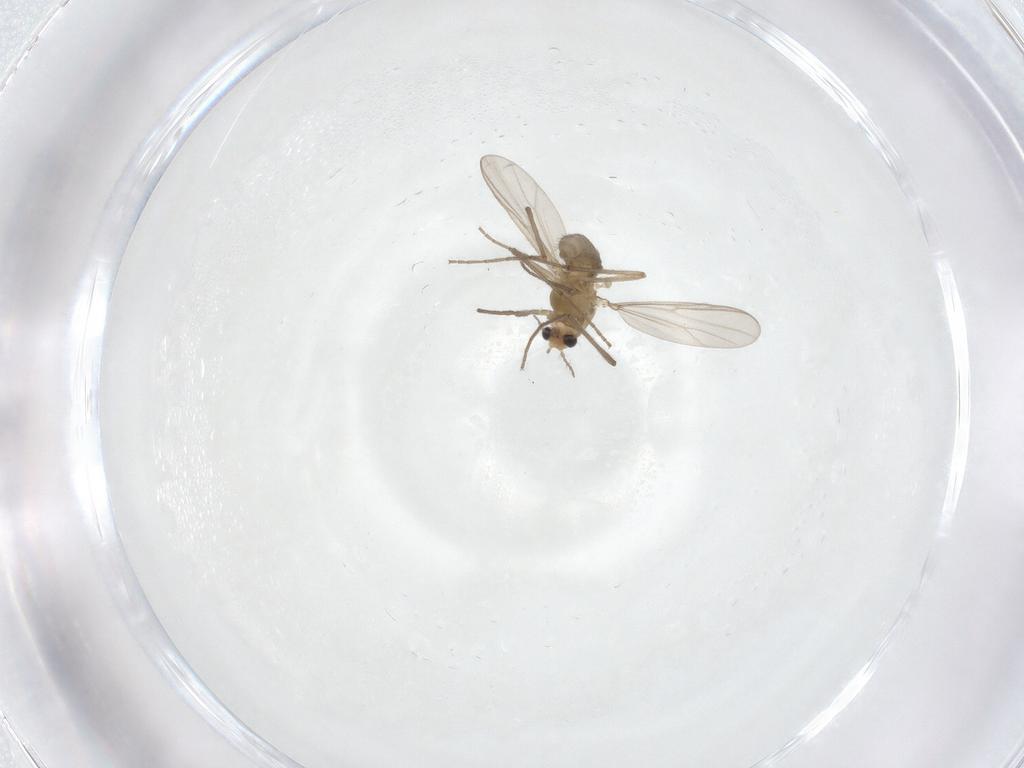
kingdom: Animalia
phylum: Arthropoda
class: Insecta
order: Diptera
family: Chironomidae
